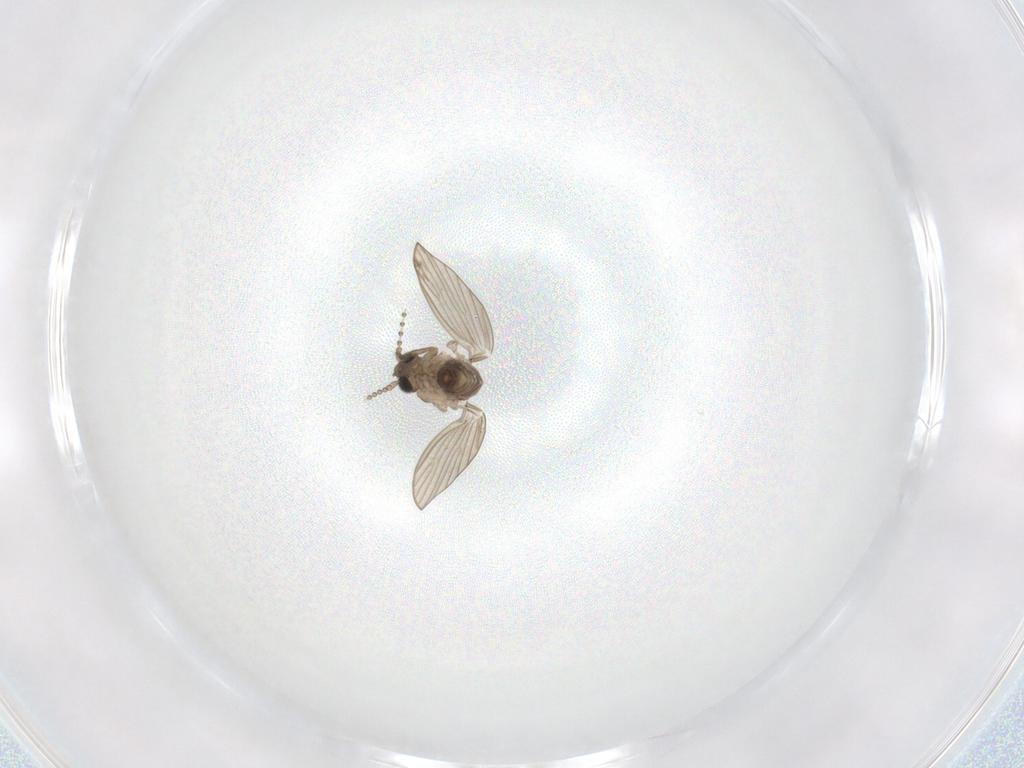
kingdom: Animalia
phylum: Arthropoda
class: Insecta
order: Diptera
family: Psychodidae
